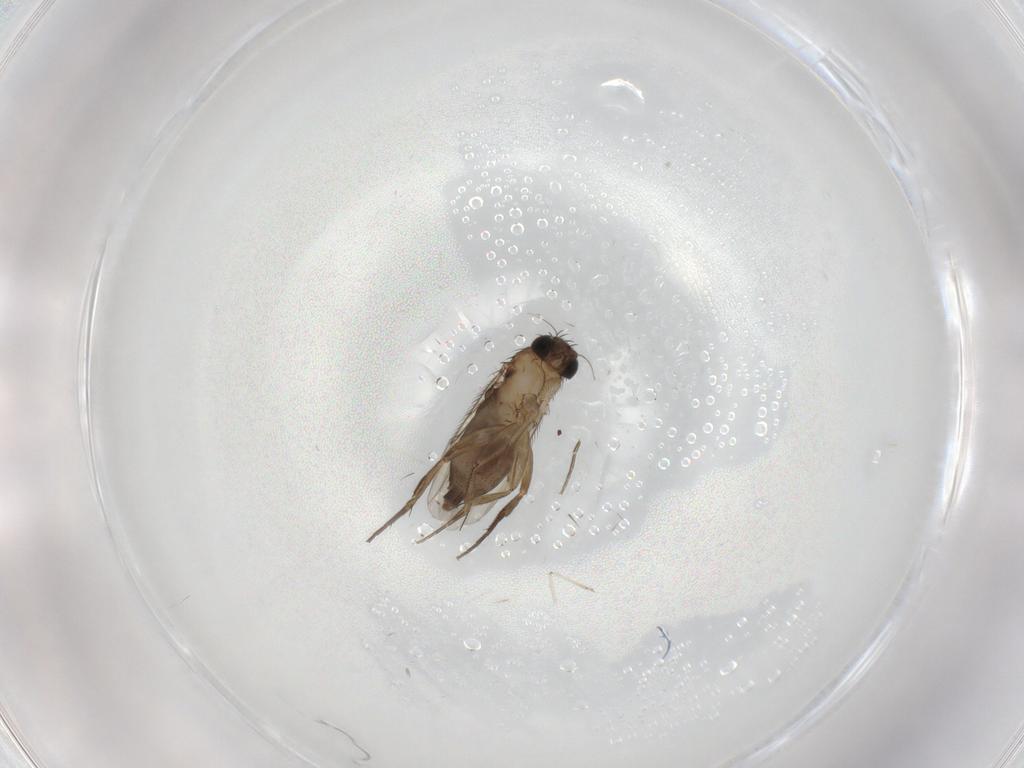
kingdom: Animalia
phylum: Arthropoda
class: Insecta
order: Diptera
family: Phoridae
